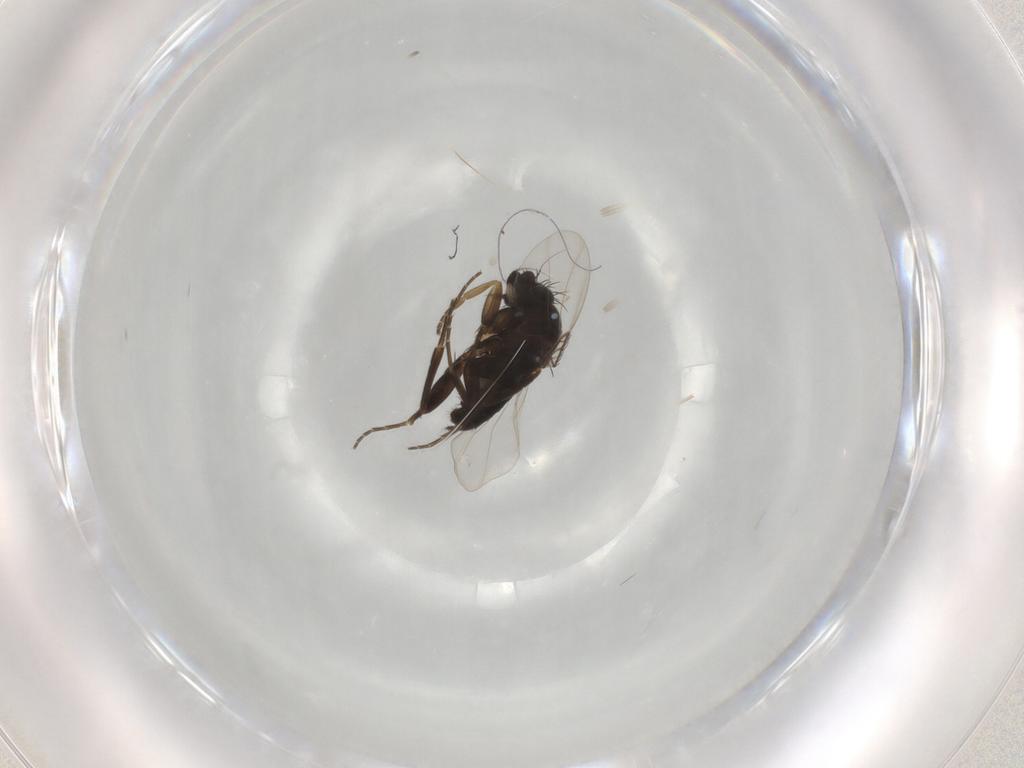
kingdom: Animalia
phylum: Arthropoda
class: Insecta
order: Diptera
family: Phoridae
